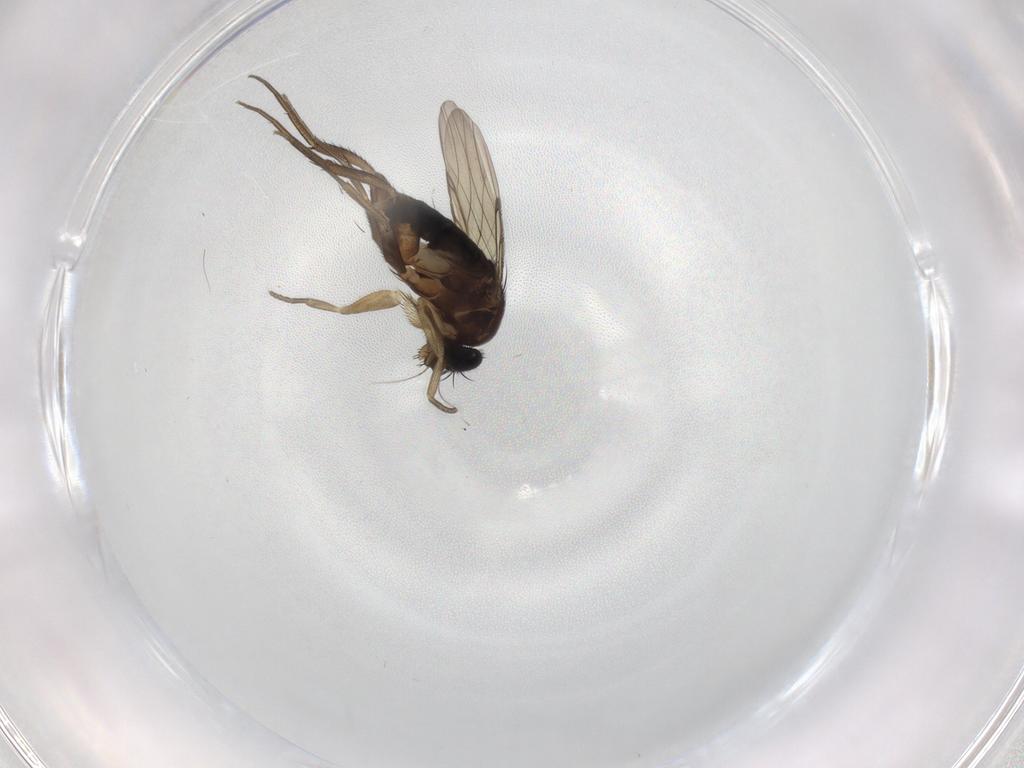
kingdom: Animalia
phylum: Arthropoda
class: Insecta
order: Diptera
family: Phoridae
